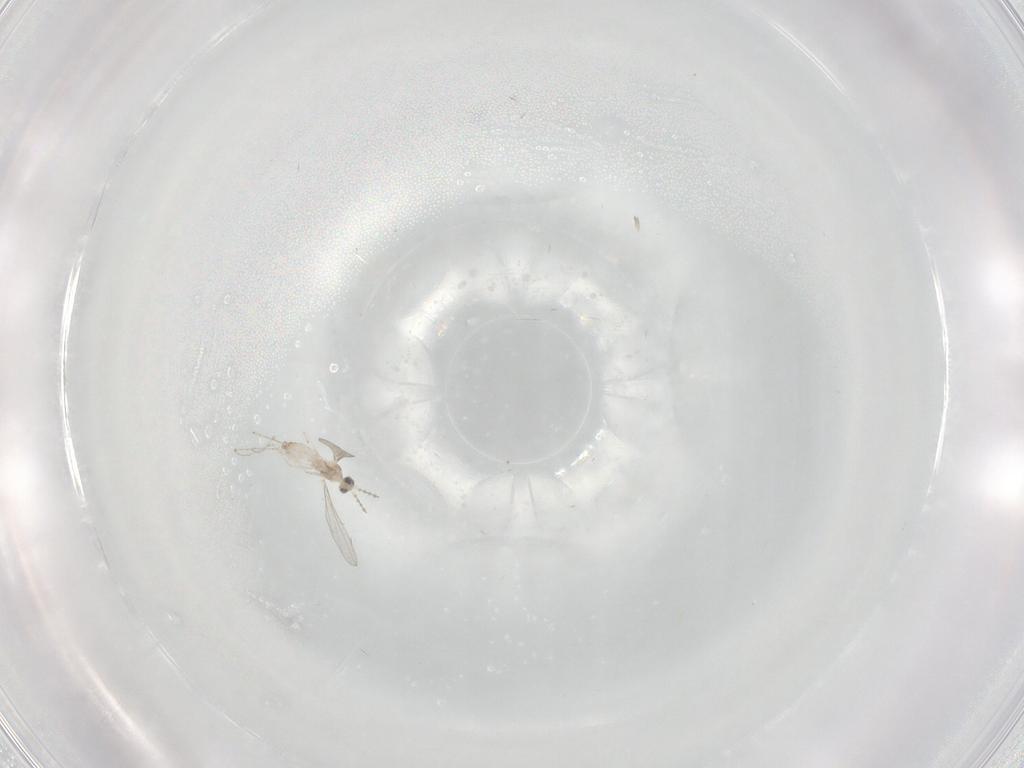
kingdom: Animalia
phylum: Arthropoda
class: Insecta
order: Diptera
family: Cecidomyiidae
